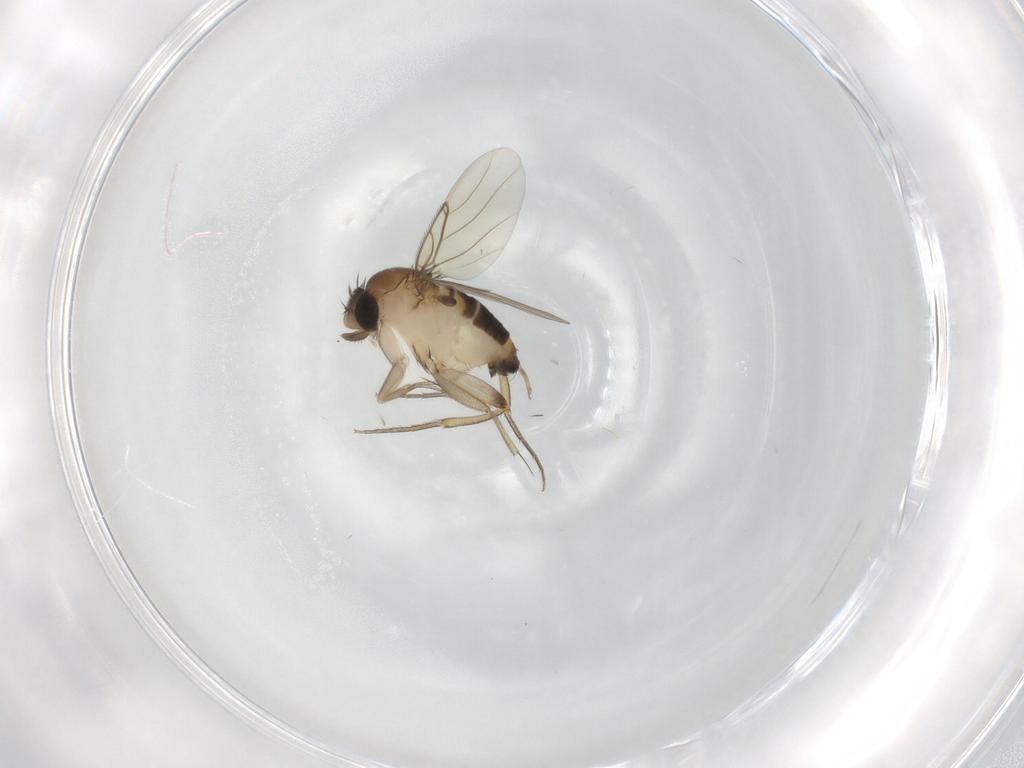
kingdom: Animalia
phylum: Arthropoda
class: Insecta
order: Diptera
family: Phoridae
